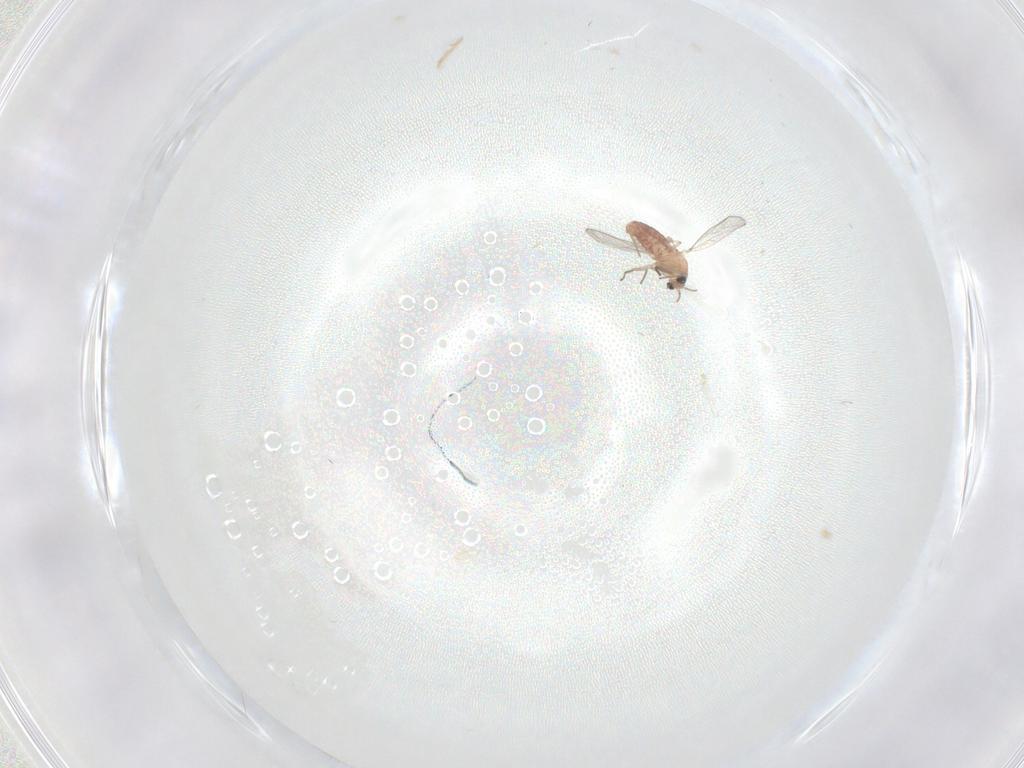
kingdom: Animalia
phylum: Arthropoda
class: Insecta
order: Diptera
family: Chironomidae
